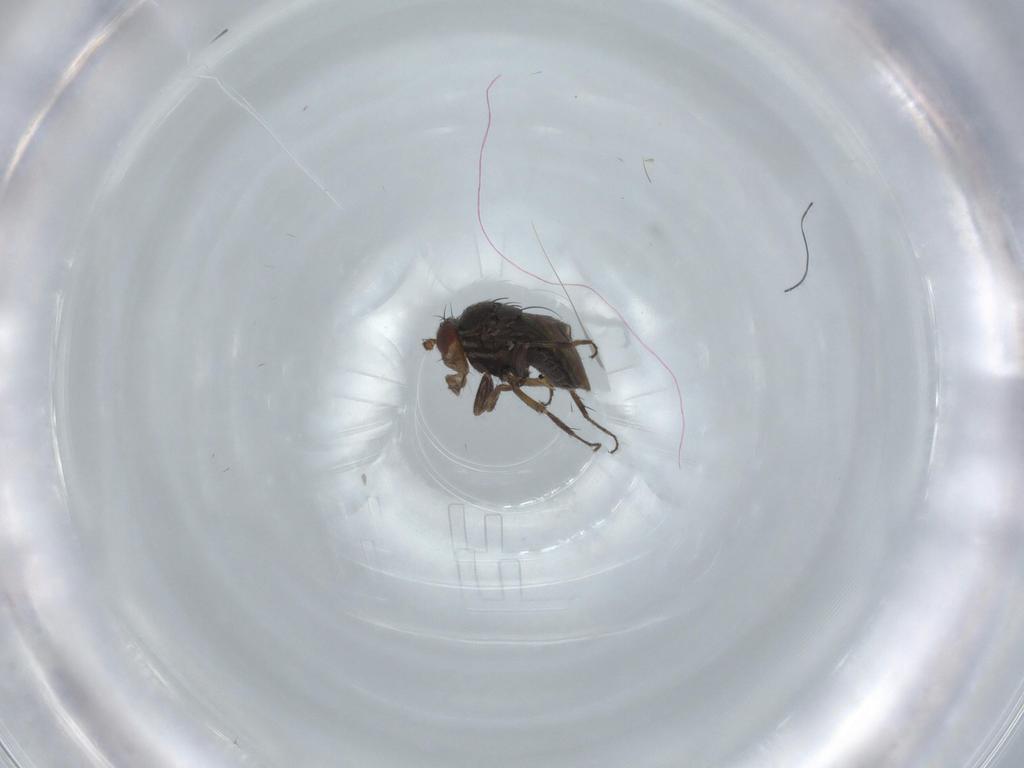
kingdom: Animalia
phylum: Arthropoda
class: Insecta
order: Diptera
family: Sphaeroceridae
